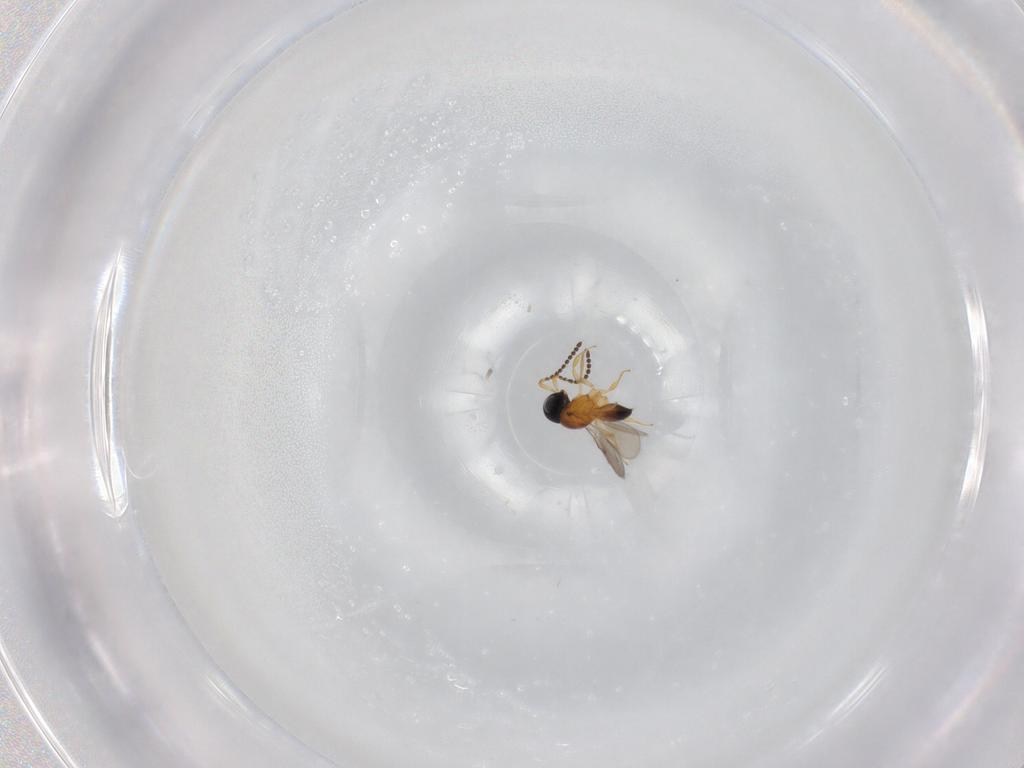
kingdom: Animalia
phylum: Arthropoda
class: Insecta
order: Hymenoptera
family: Scelionidae
